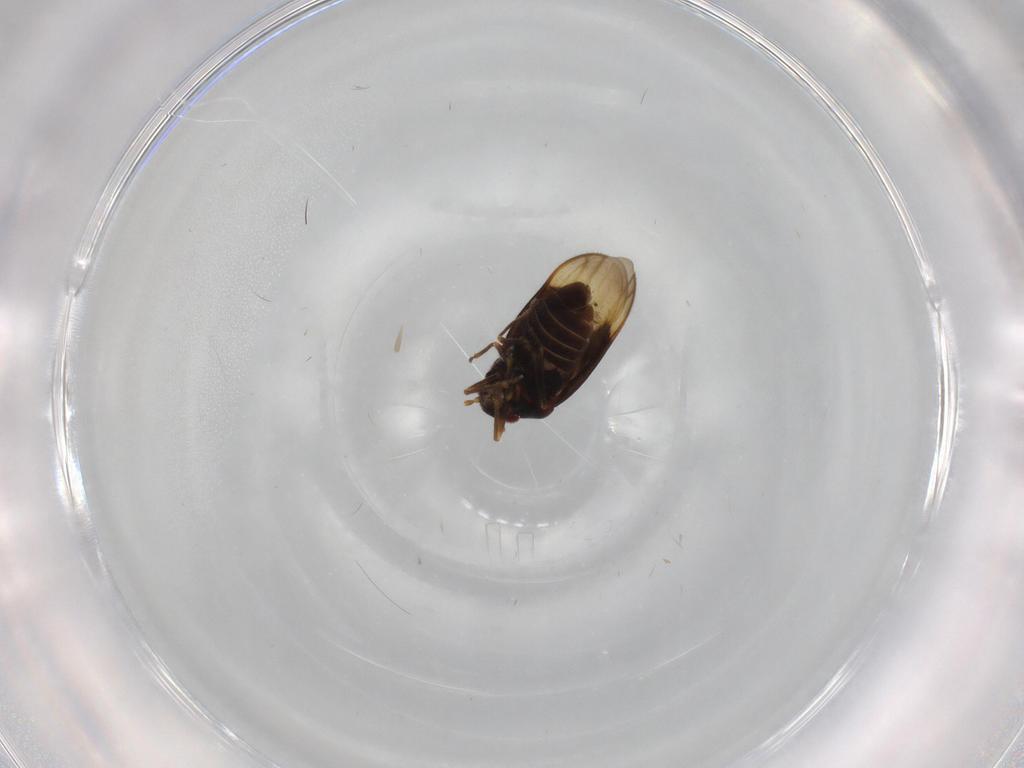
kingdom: Animalia
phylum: Arthropoda
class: Insecta
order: Hemiptera
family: Schizopteridae
